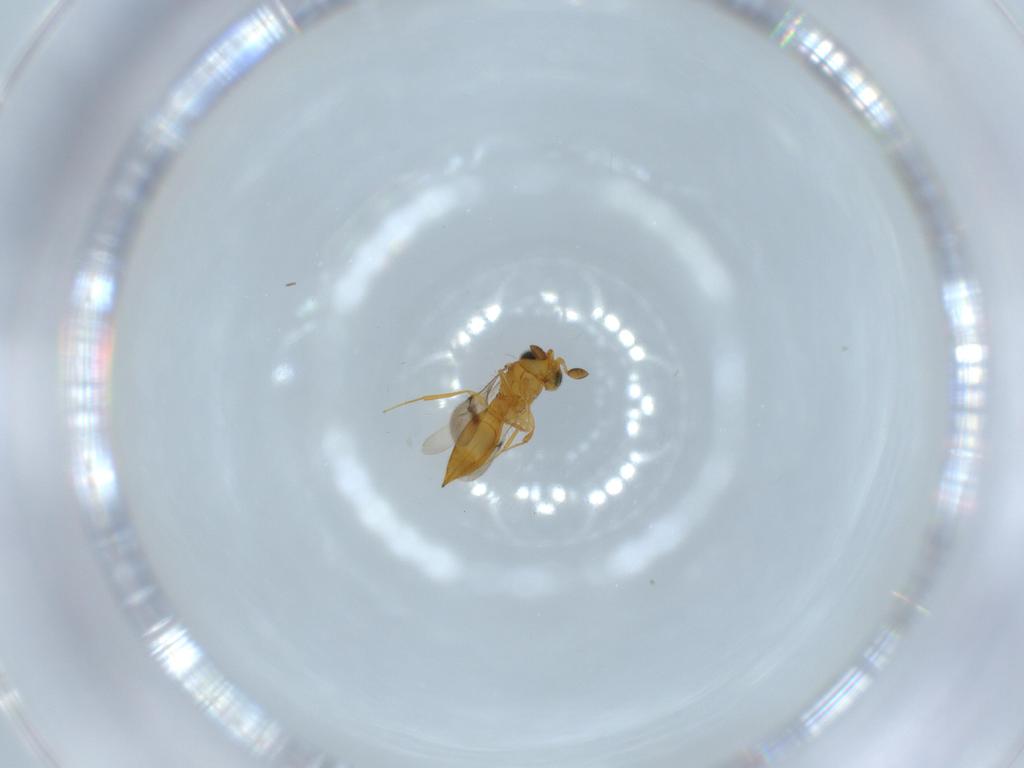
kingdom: Animalia
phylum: Arthropoda
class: Insecta
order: Hymenoptera
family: Scelionidae
